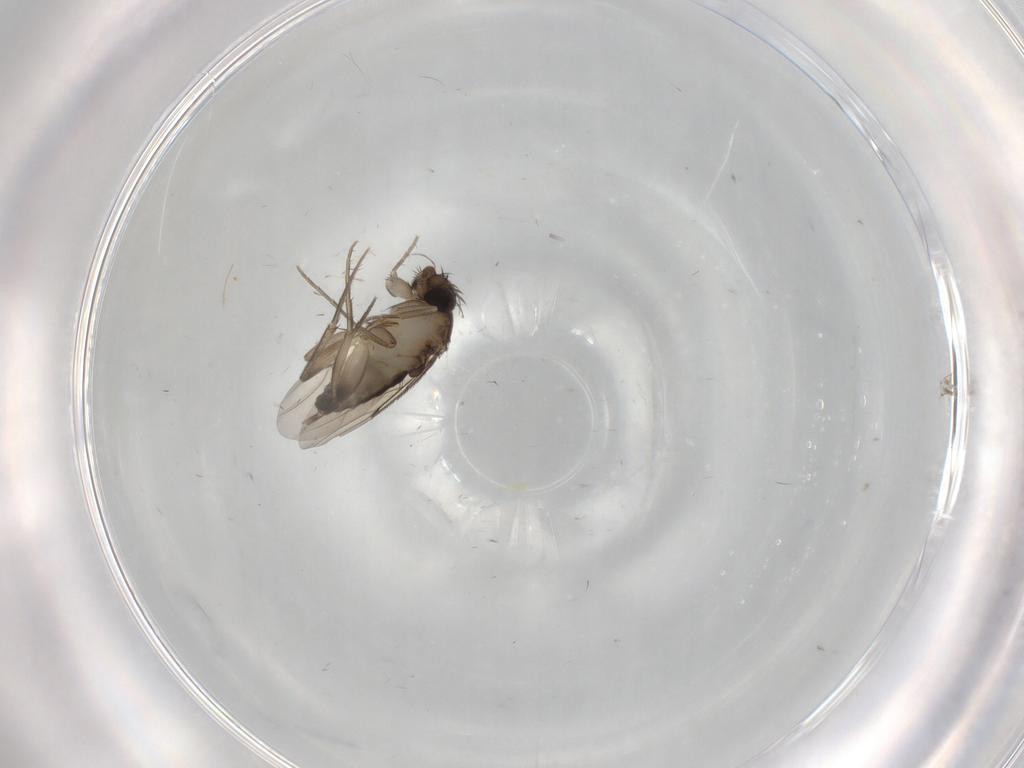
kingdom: Animalia
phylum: Arthropoda
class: Insecta
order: Diptera
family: Phoridae
